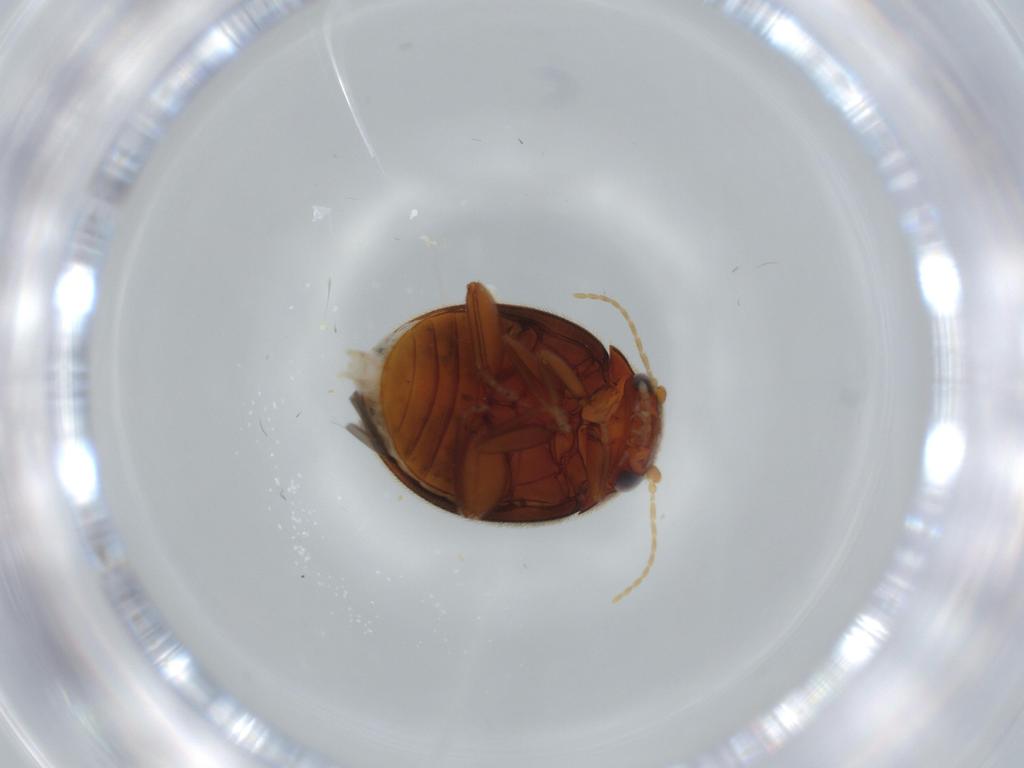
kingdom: Animalia
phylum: Arthropoda
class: Insecta
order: Coleoptera
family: Scirtidae
